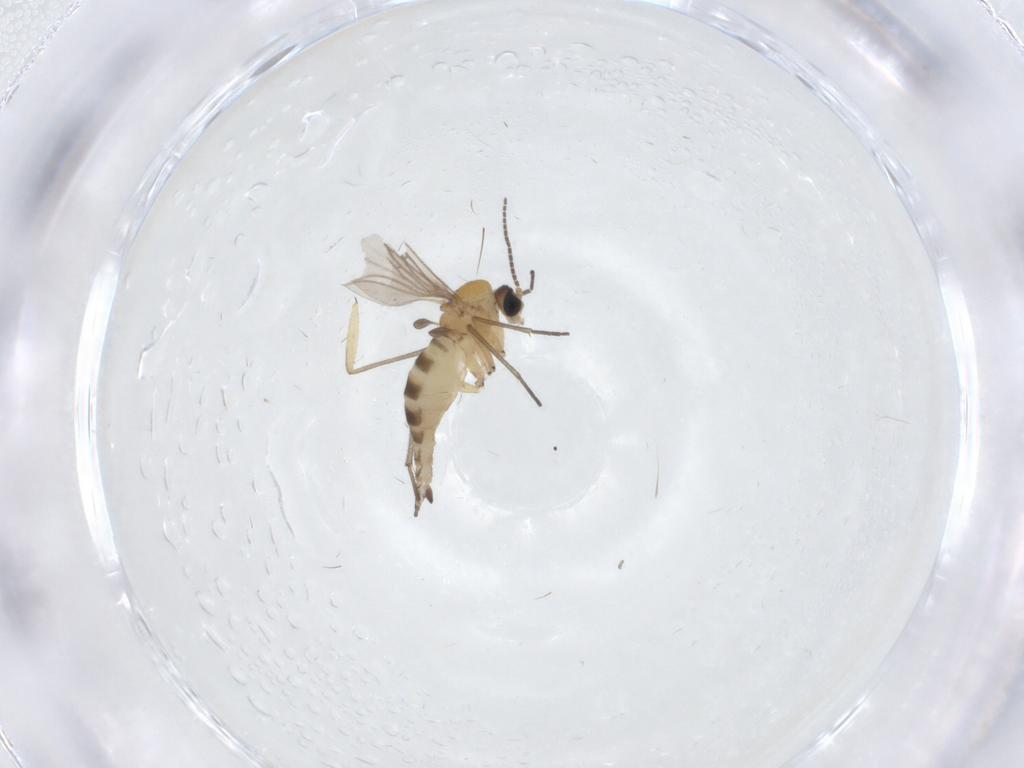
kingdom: Animalia
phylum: Arthropoda
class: Insecta
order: Diptera
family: Sciaridae
